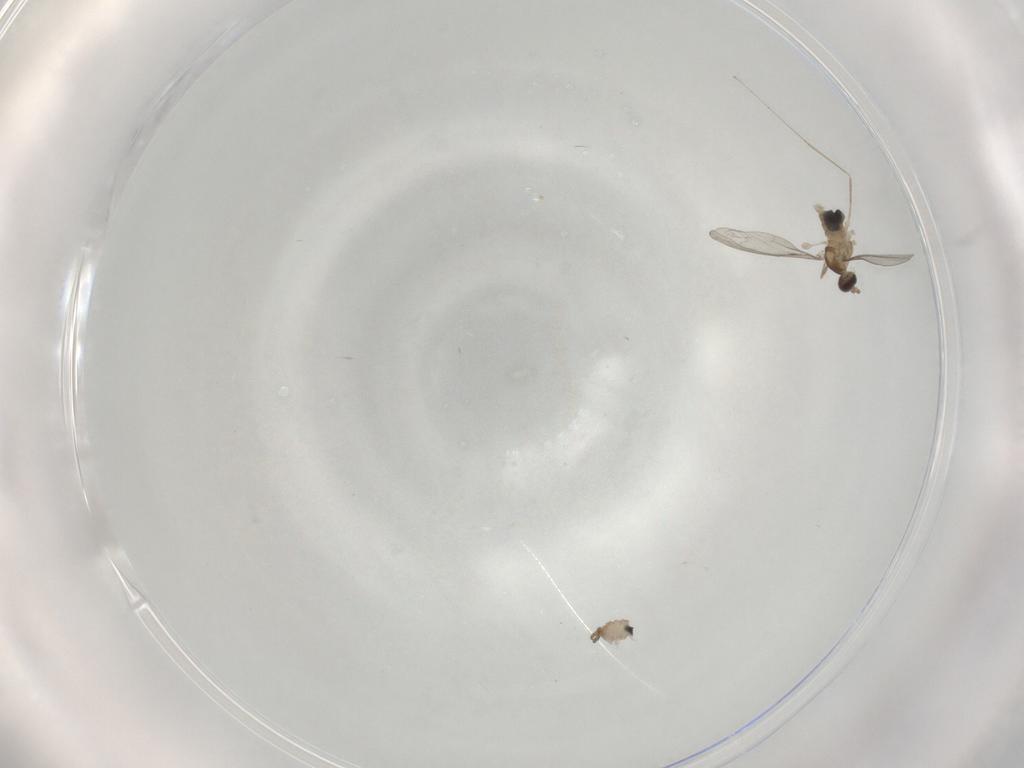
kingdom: Animalia
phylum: Arthropoda
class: Insecta
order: Diptera
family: Cecidomyiidae
